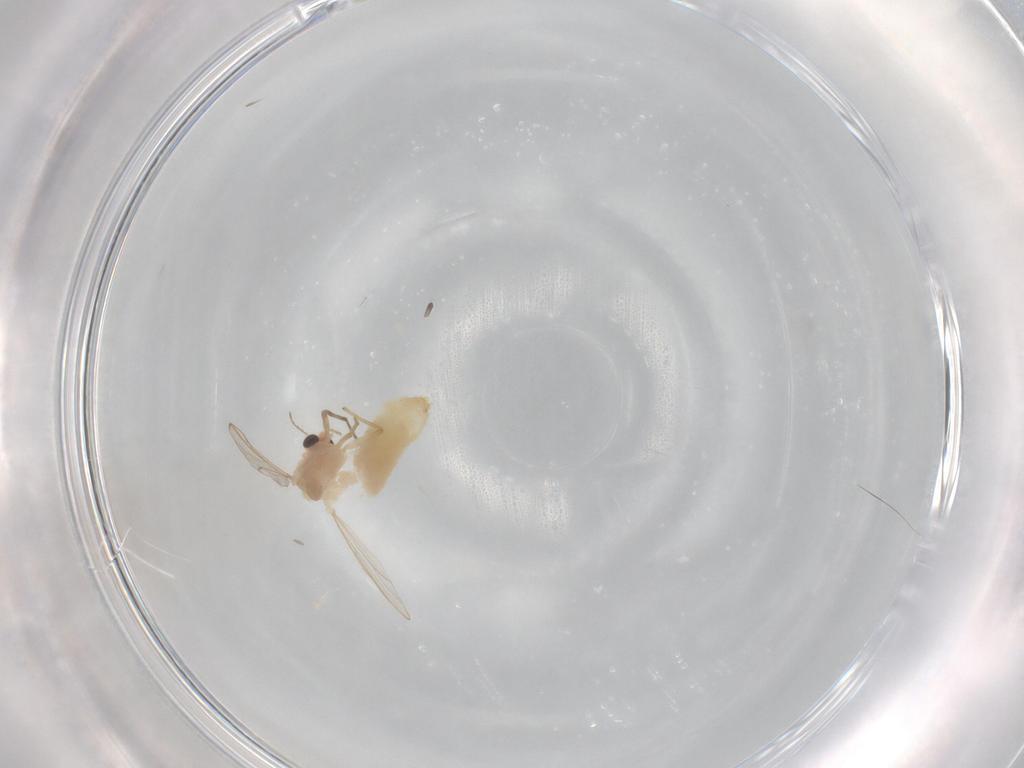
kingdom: Animalia
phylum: Arthropoda
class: Insecta
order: Diptera
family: Chironomidae
